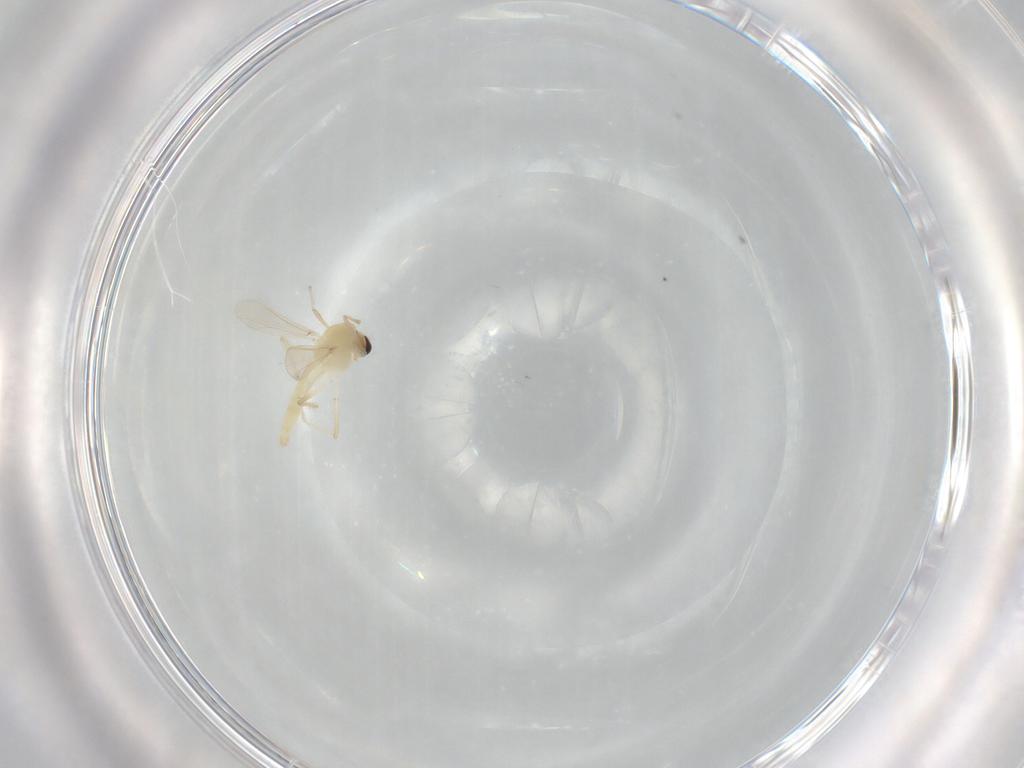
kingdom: Animalia
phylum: Arthropoda
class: Insecta
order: Diptera
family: Chironomidae
